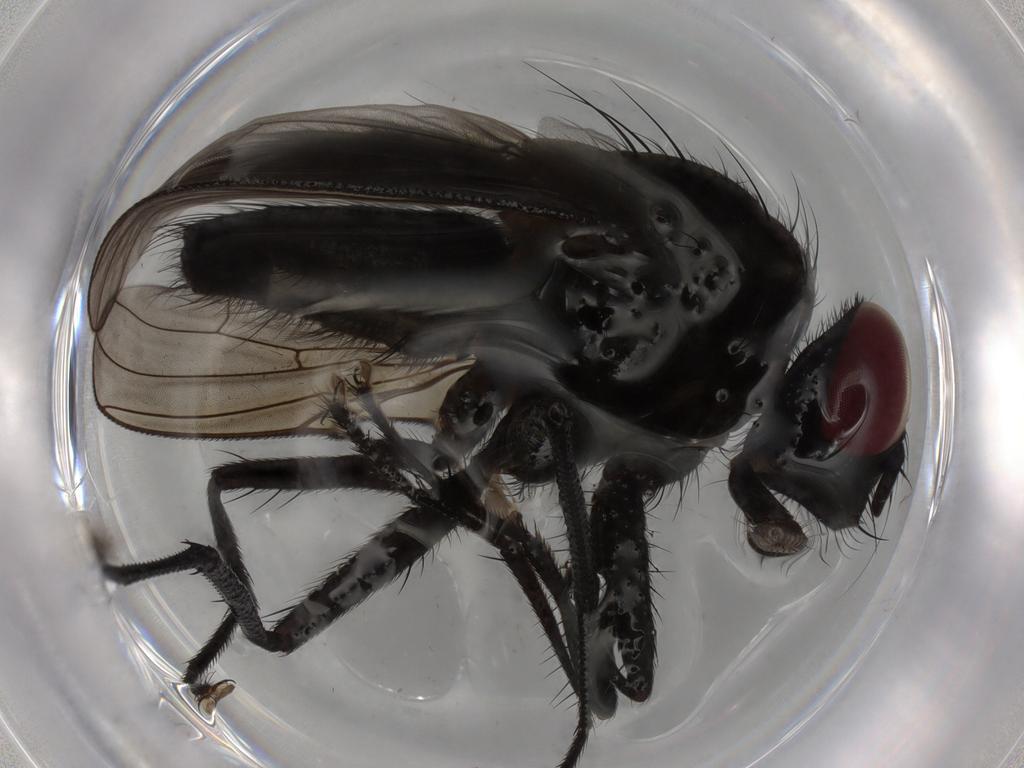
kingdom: Animalia
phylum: Arthropoda
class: Insecta
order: Diptera
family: Muscidae
